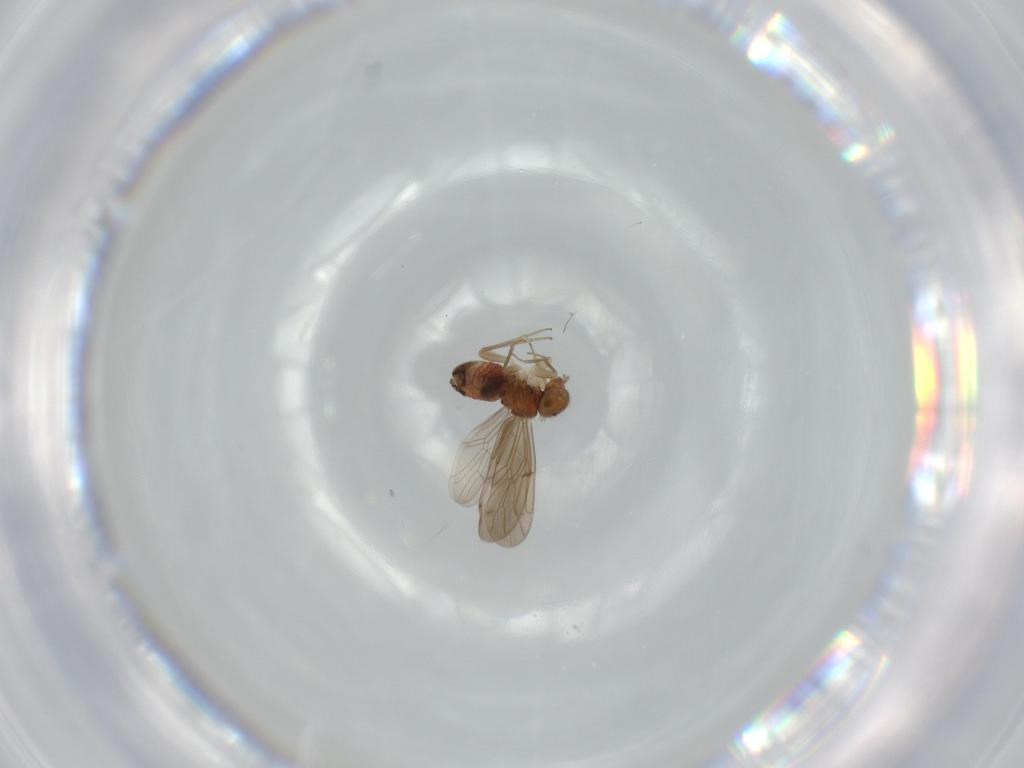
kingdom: Animalia
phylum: Arthropoda
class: Insecta
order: Psocodea
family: Ectopsocidae
